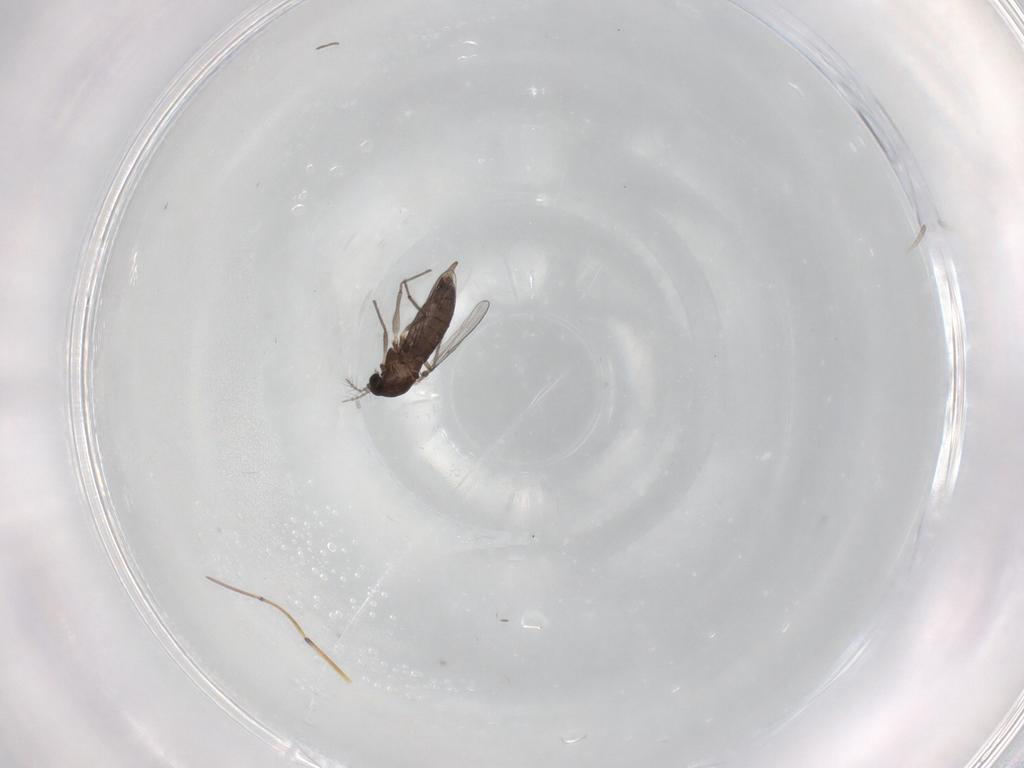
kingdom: Animalia
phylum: Arthropoda
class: Insecta
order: Diptera
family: Chironomidae
